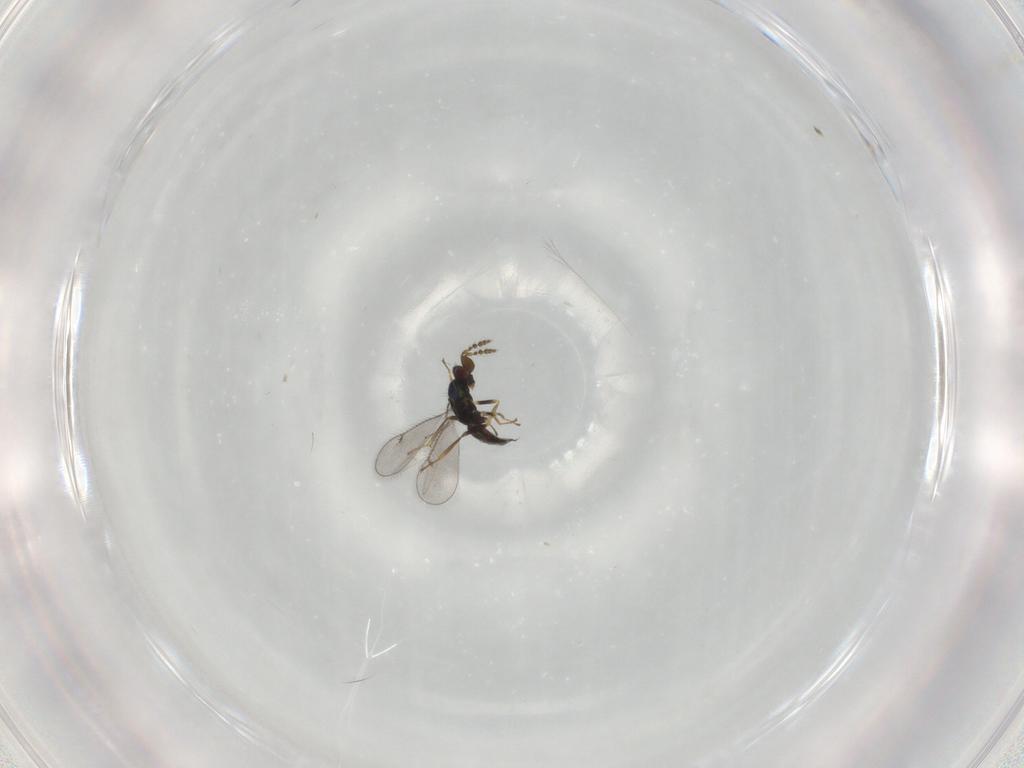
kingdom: Animalia
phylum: Arthropoda
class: Insecta
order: Hymenoptera
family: Eulophidae
